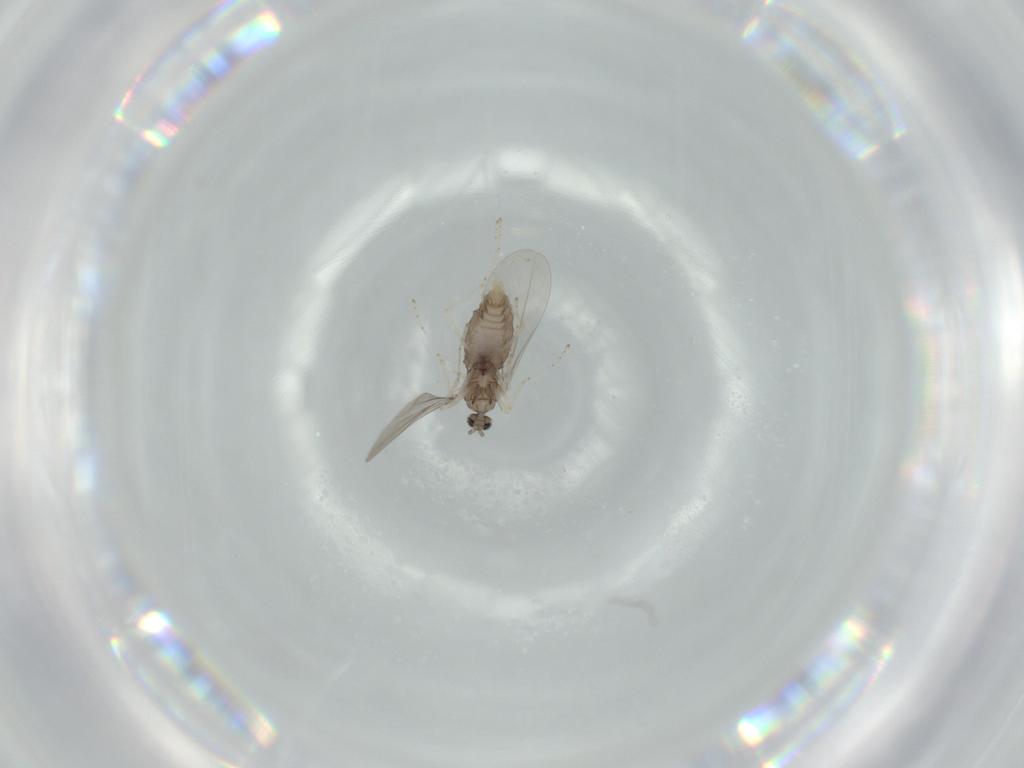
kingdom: Animalia
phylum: Arthropoda
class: Insecta
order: Diptera
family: Cecidomyiidae
